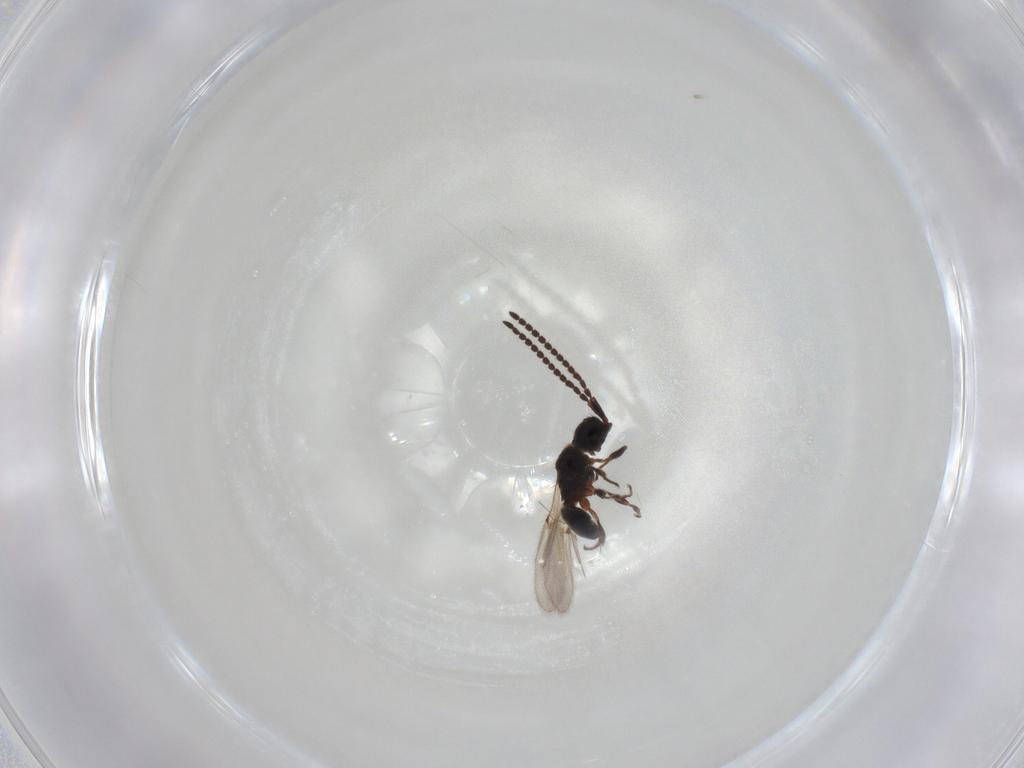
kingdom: Animalia
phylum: Arthropoda
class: Insecta
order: Hymenoptera
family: Diapriidae
